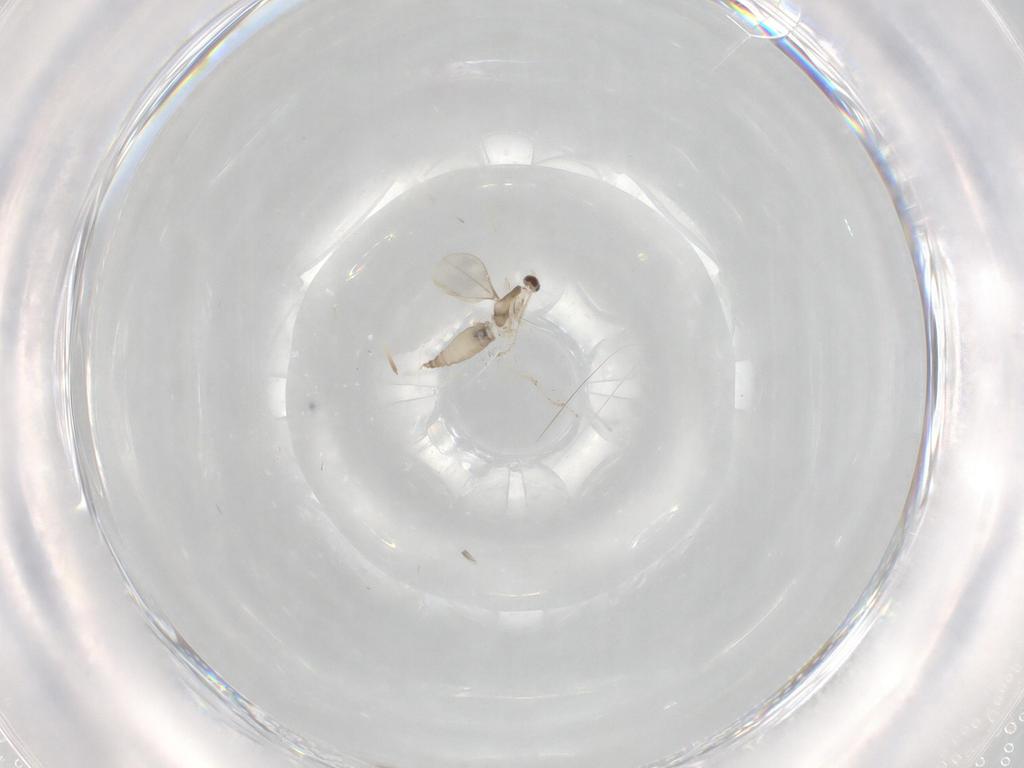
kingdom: Animalia
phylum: Arthropoda
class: Insecta
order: Diptera
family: Cecidomyiidae
